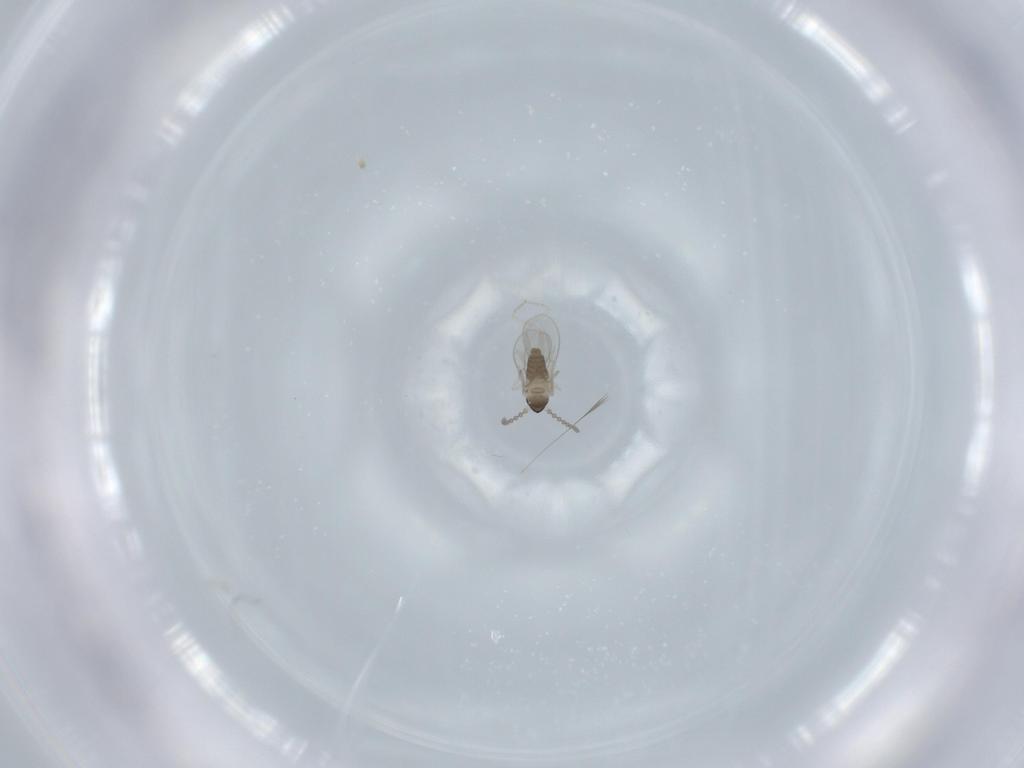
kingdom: Animalia
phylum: Arthropoda
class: Insecta
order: Diptera
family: Cecidomyiidae
